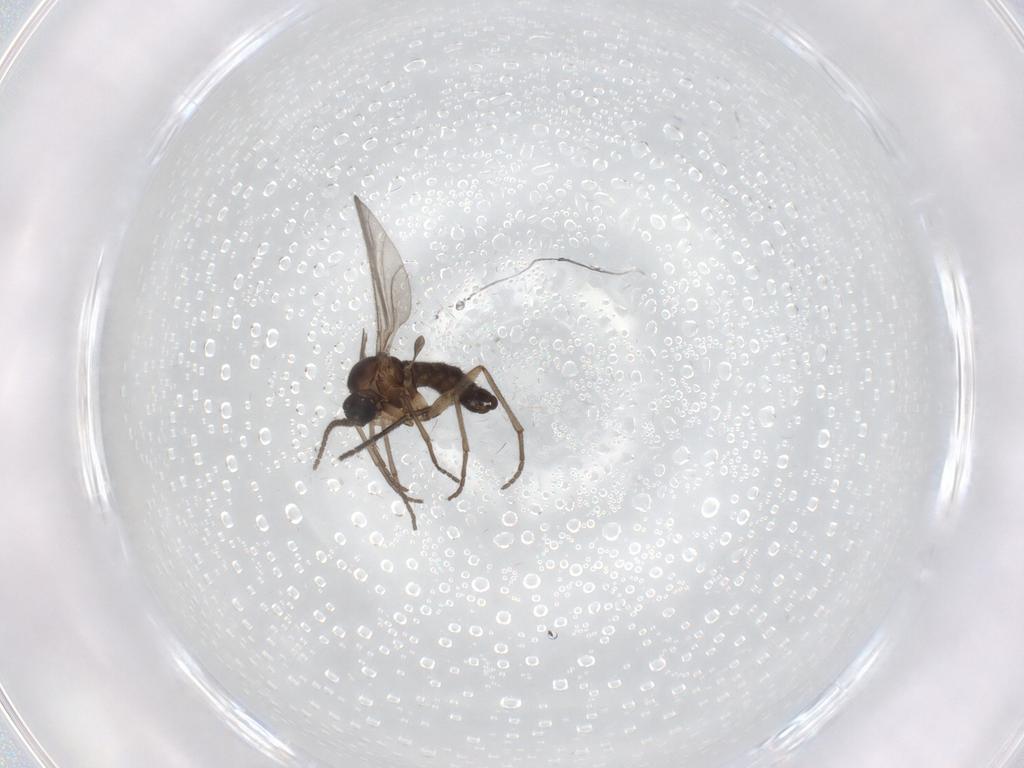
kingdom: Animalia
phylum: Arthropoda
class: Insecta
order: Diptera
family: Sciaridae
